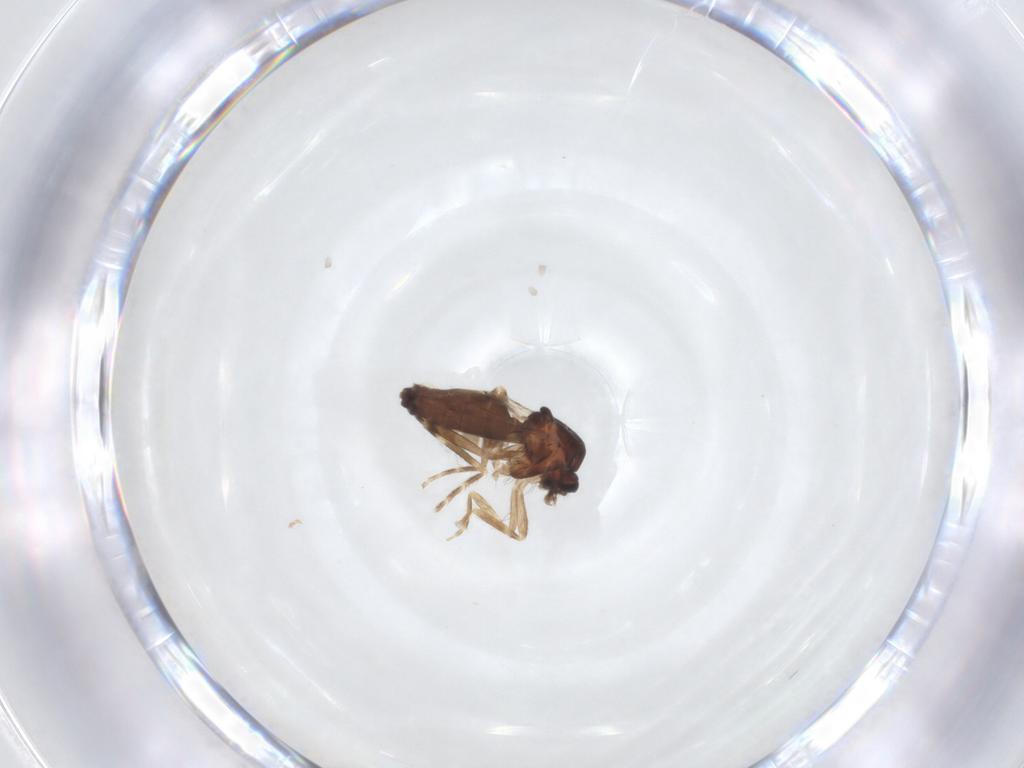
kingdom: Animalia
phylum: Arthropoda
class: Insecta
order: Diptera
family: Ceratopogonidae
